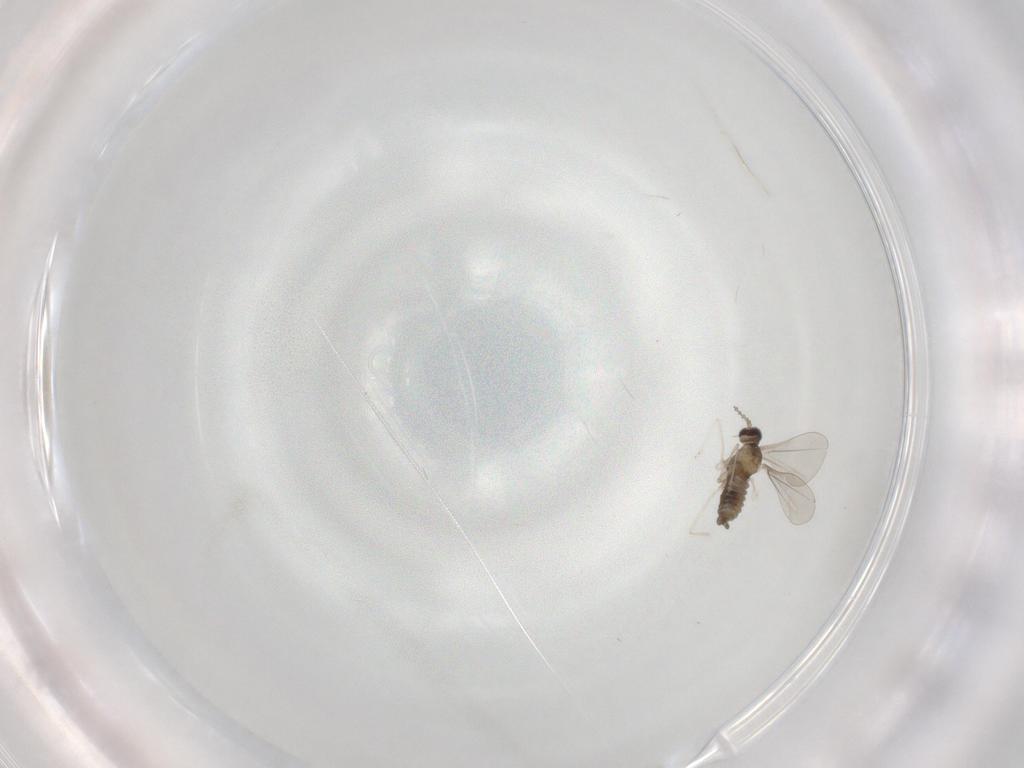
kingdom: Animalia
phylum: Arthropoda
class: Insecta
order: Diptera
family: Cecidomyiidae
